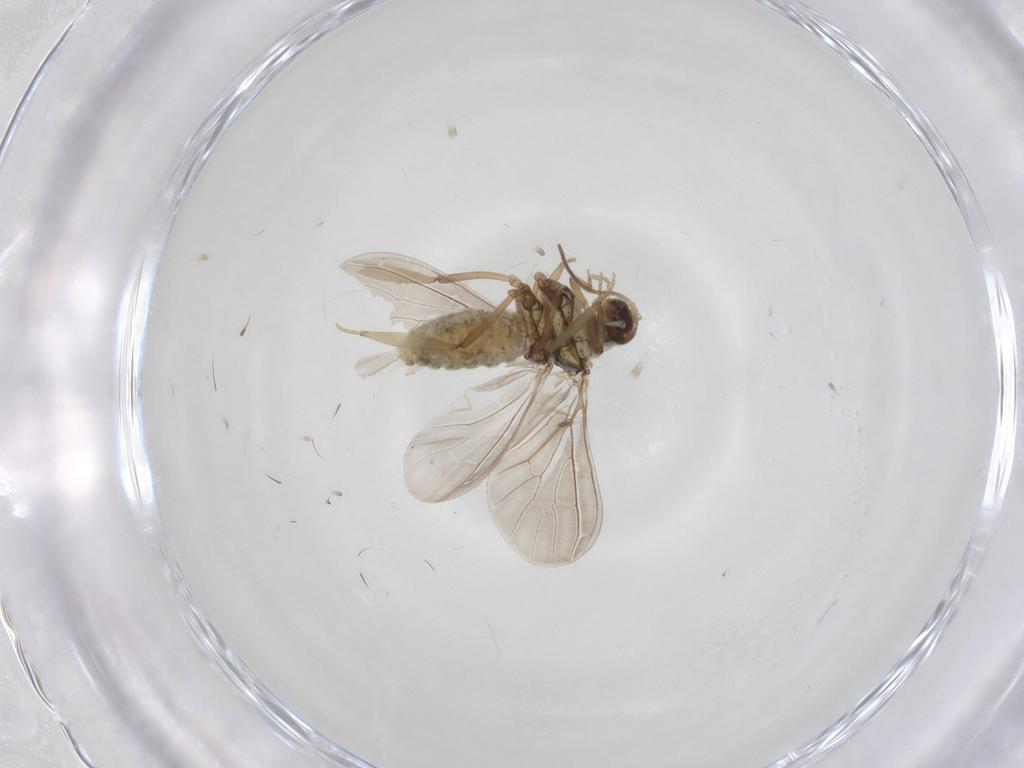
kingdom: Animalia
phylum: Arthropoda
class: Insecta
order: Neuroptera
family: Coniopterygidae
